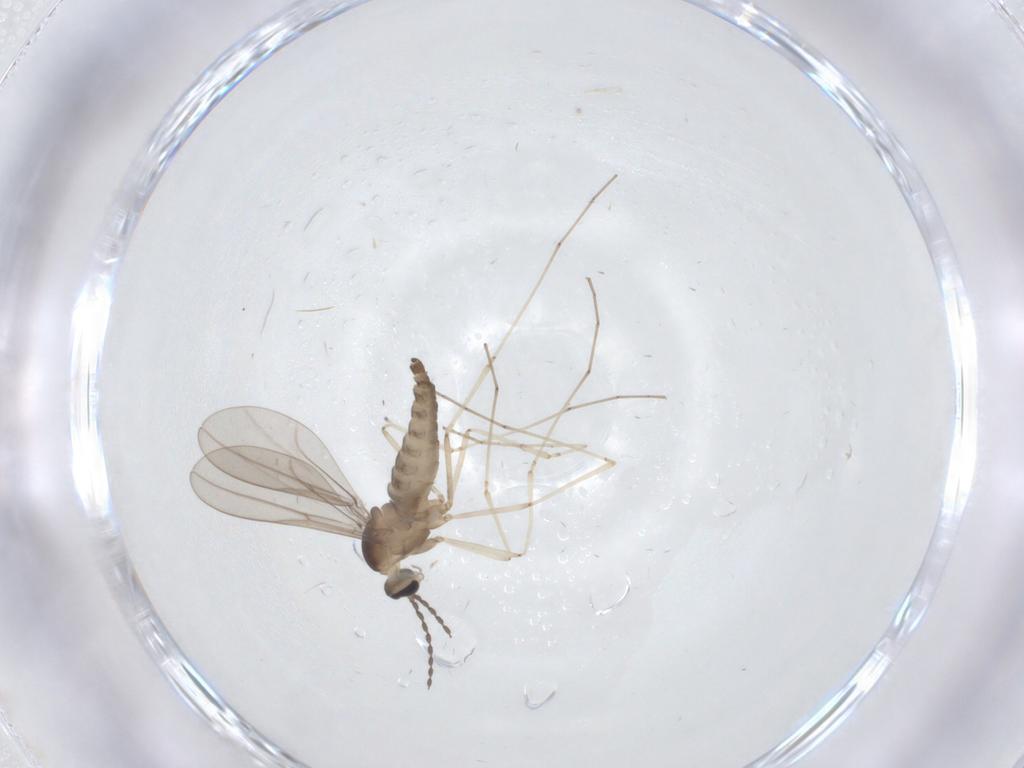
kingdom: Animalia
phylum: Arthropoda
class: Insecta
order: Diptera
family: Cecidomyiidae
